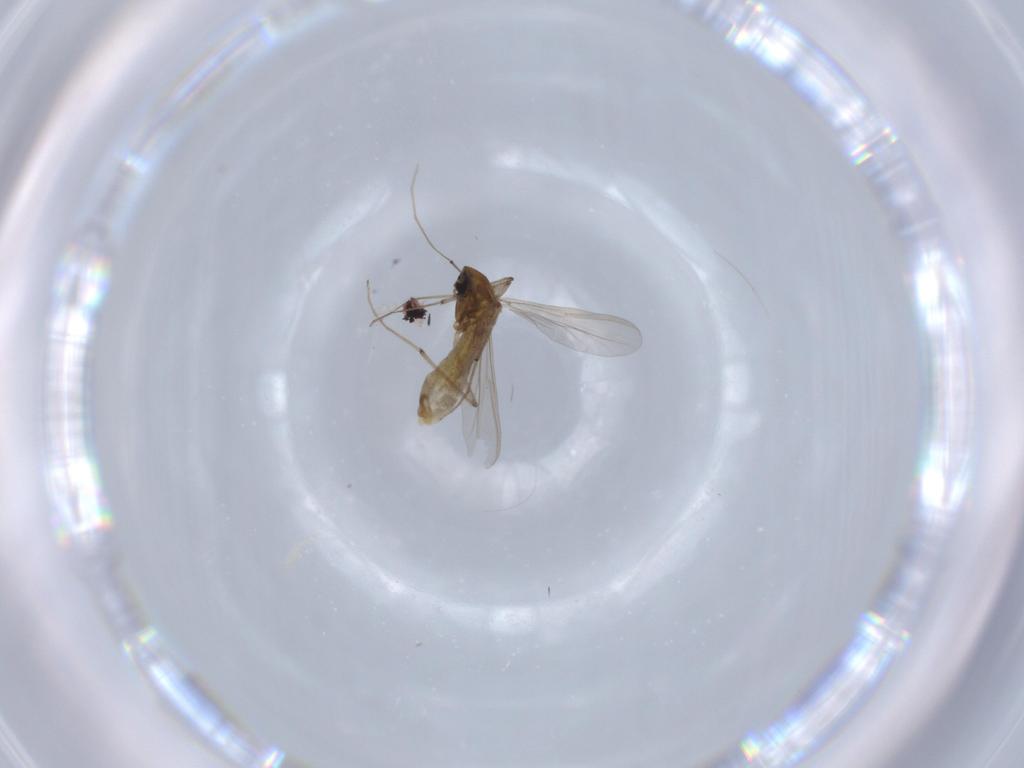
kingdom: Animalia
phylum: Arthropoda
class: Insecta
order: Diptera
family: Chironomidae
